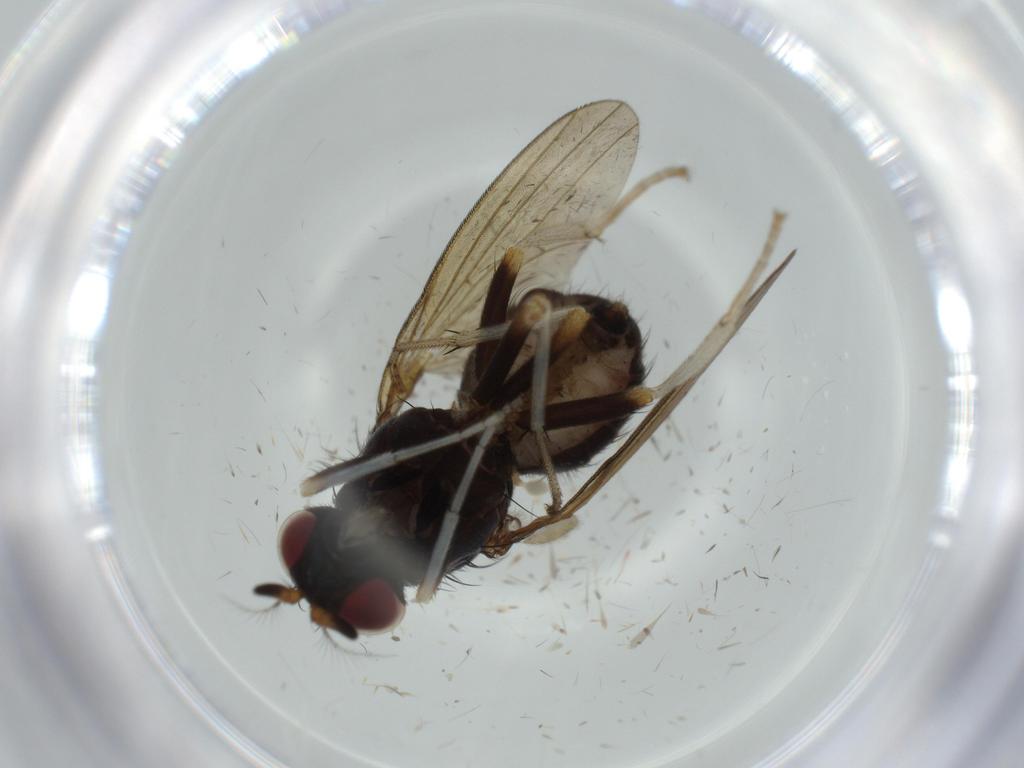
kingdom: Animalia
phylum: Arthropoda
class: Insecta
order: Diptera
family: Lauxaniidae
